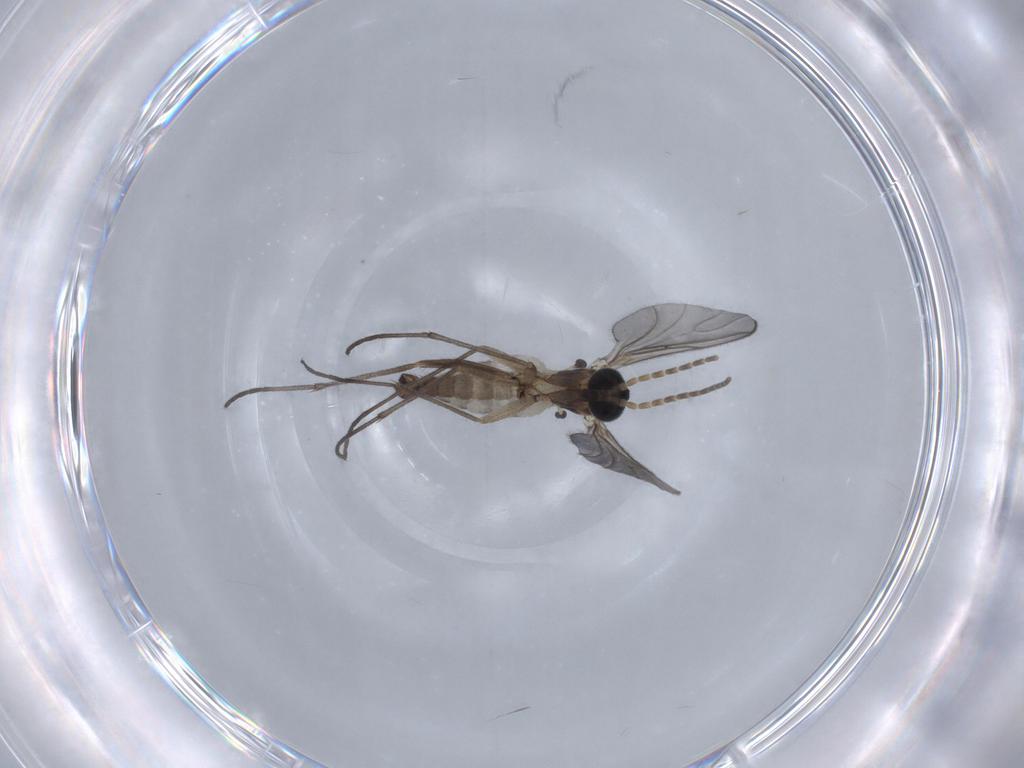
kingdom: Animalia
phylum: Arthropoda
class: Insecta
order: Diptera
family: Sciaridae
